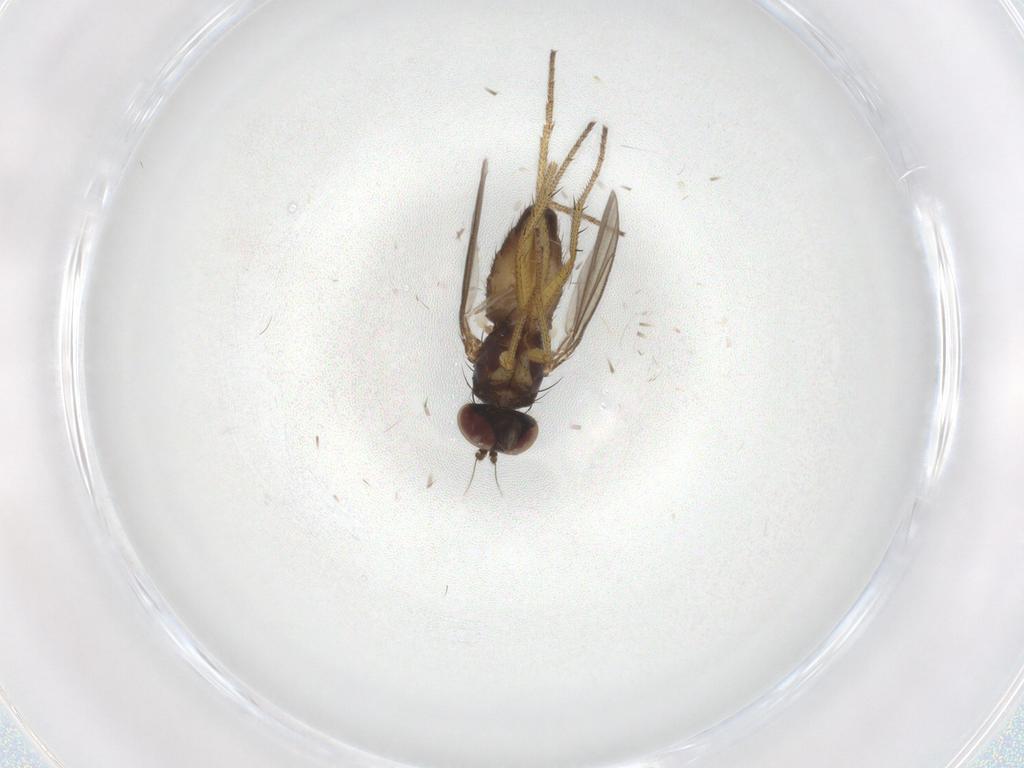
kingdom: Animalia
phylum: Arthropoda
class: Insecta
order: Diptera
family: Chironomidae
